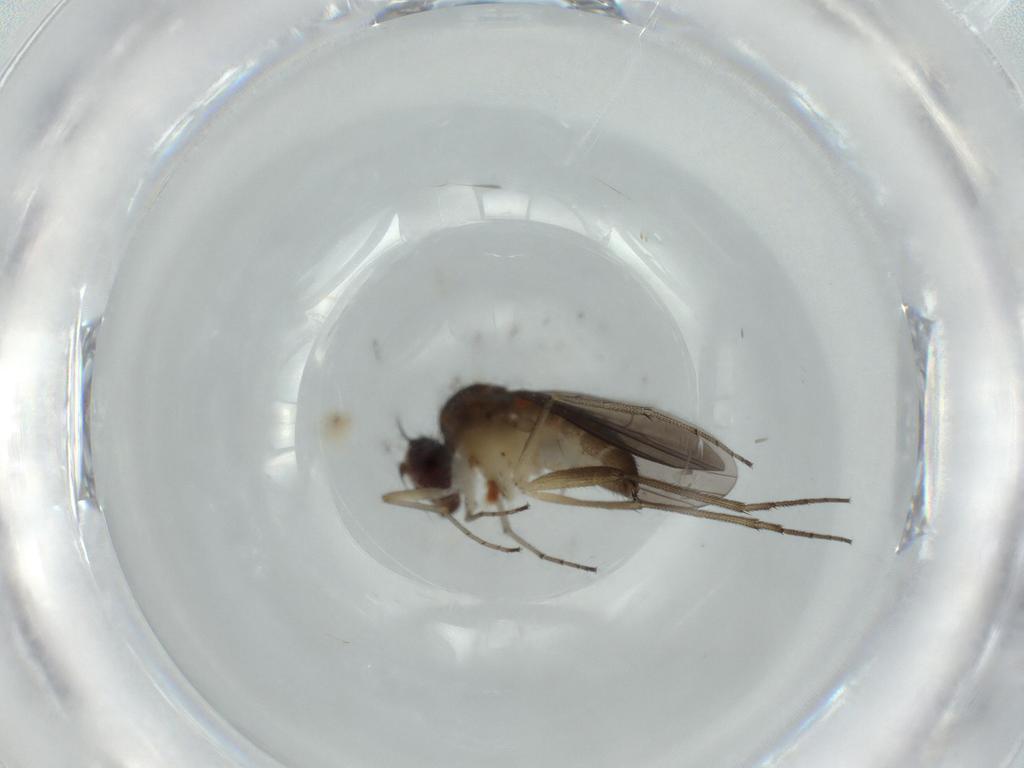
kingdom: Animalia
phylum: Arthropoda
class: Insecta
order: Diptera
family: Dolichopodidae
